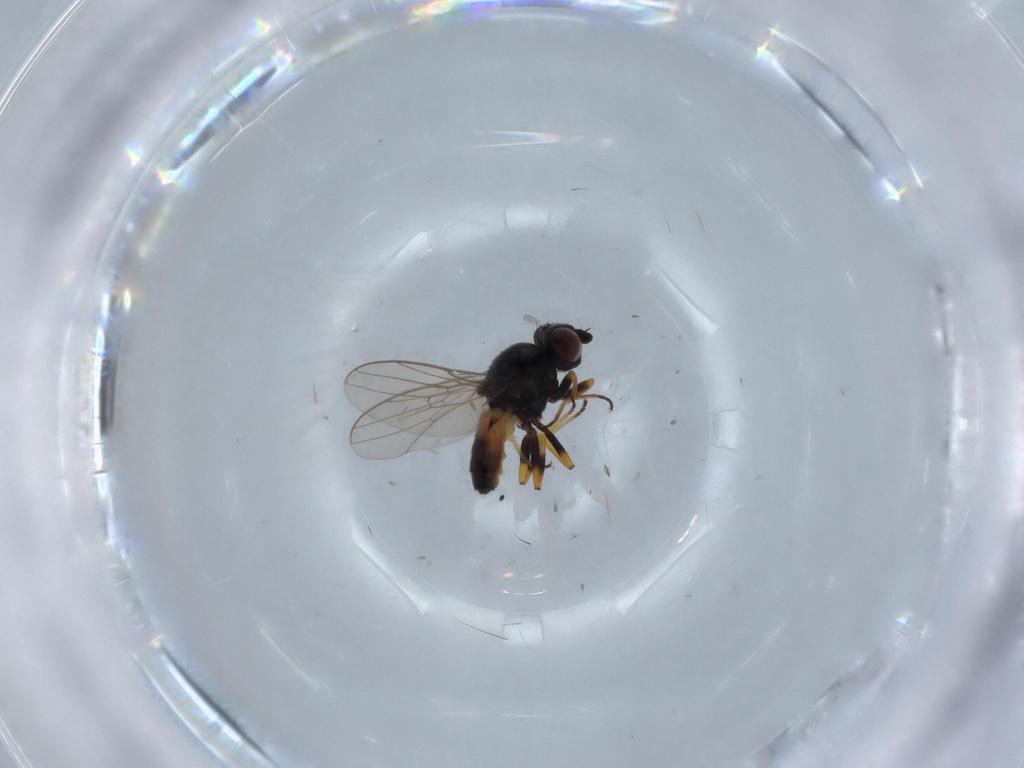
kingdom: Animalia
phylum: Arthropoda
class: Insecta
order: Diptera
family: Chloropidae
